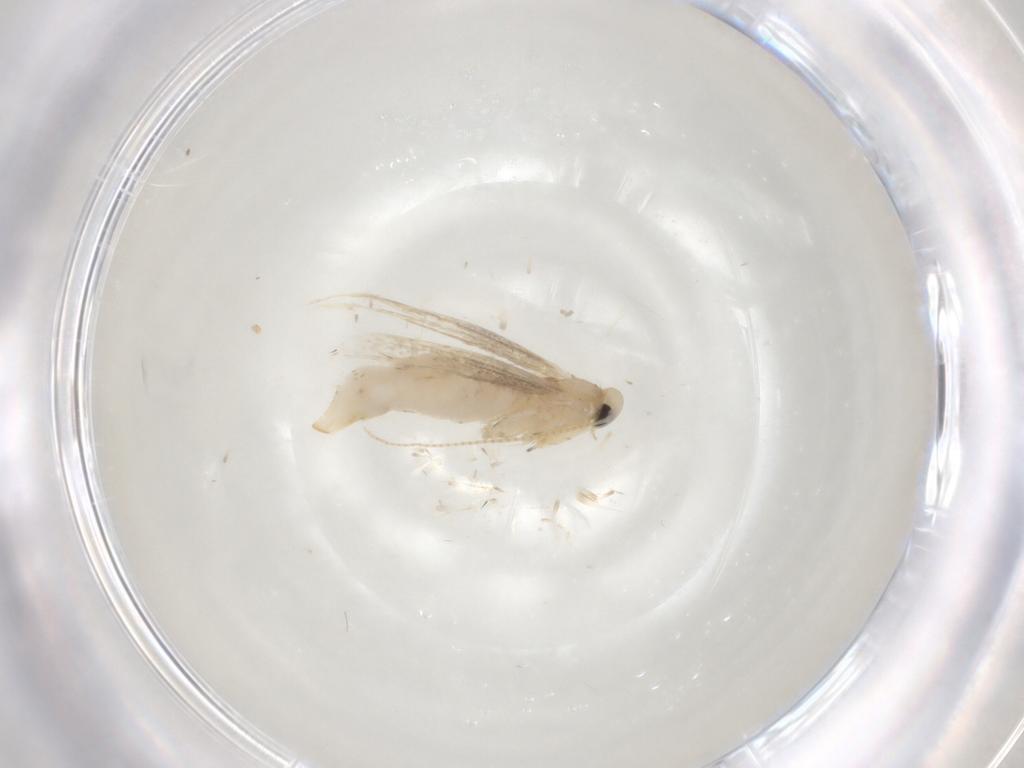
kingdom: Animalia
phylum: Arthropoda
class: Insecta
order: Lepidoptera
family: Gracillariidae
